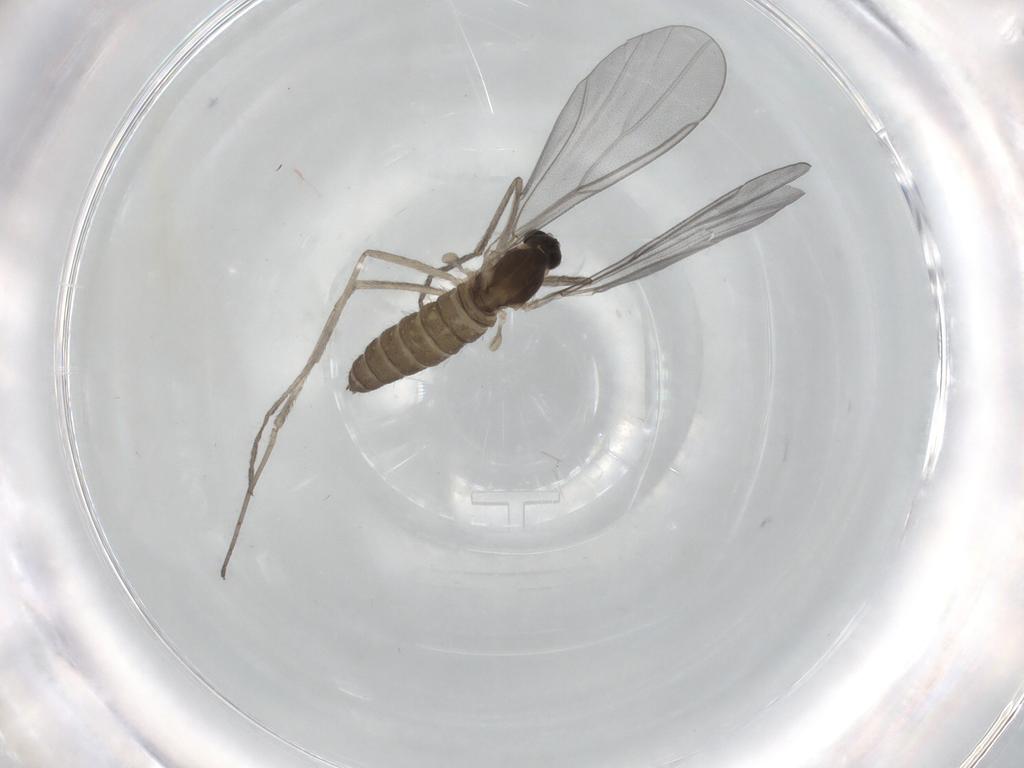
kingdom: Animalia
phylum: Arthropoda
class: Insecta
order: Diptera
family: Cecidomyiidae
